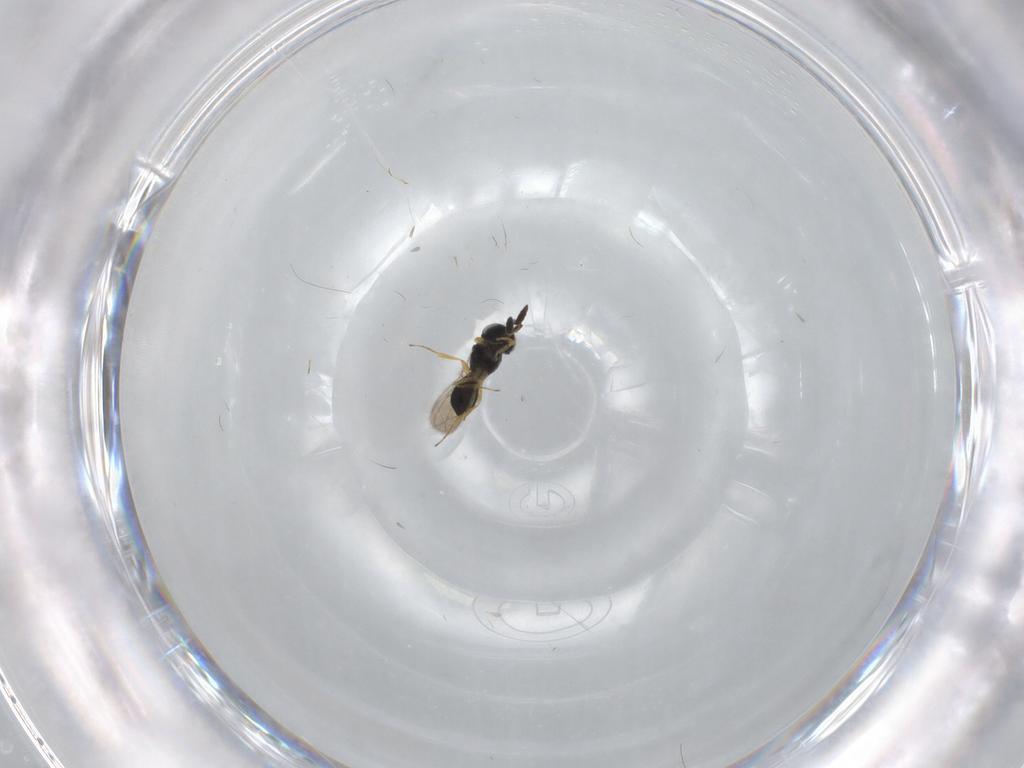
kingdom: Animalia
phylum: Arthropoda
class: Insecta
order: Hymenoptera
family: Scelionidae
